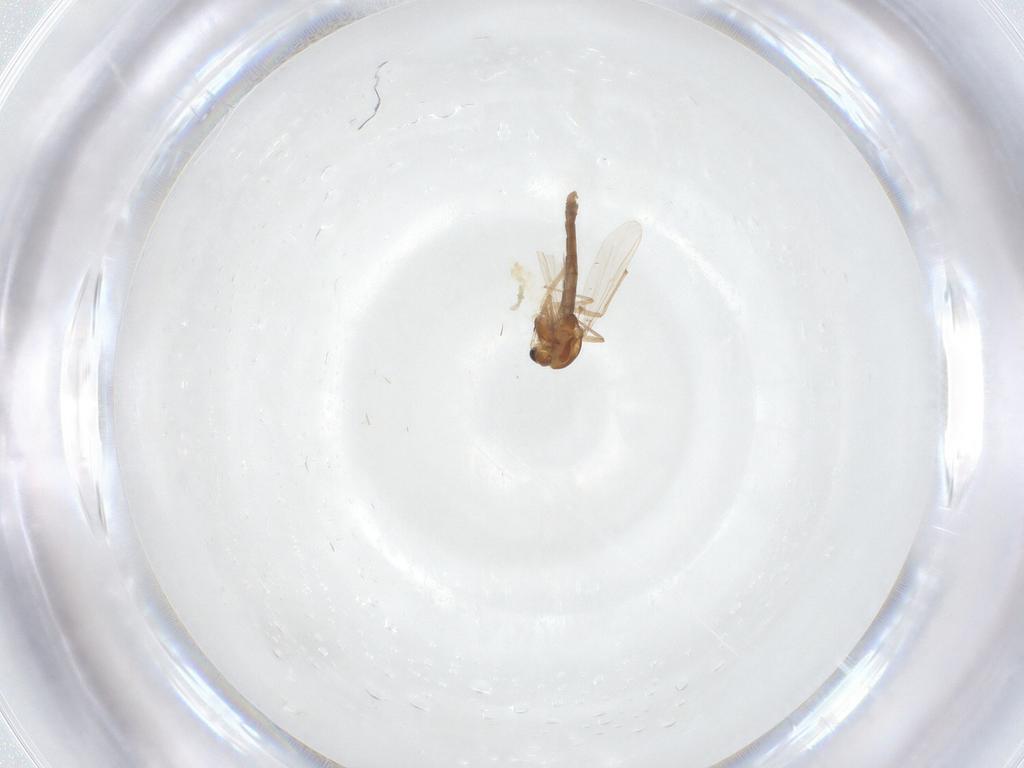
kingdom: Animalia
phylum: Arthropoda
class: Insecta
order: Diptera
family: Chironomidae
